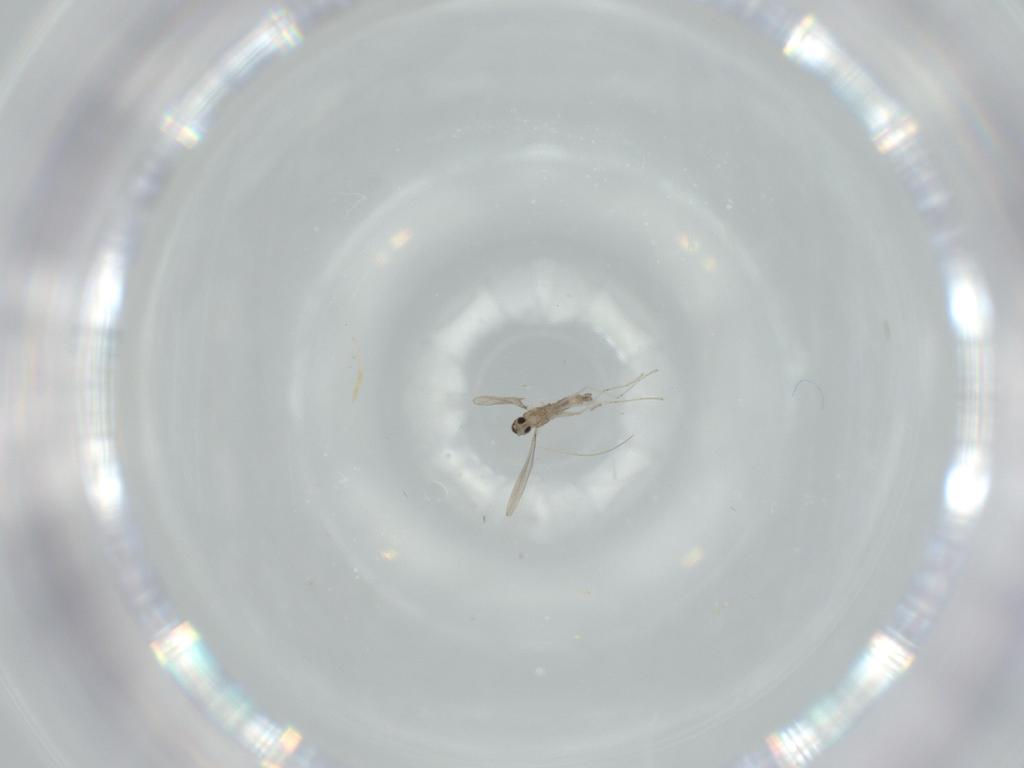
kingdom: Animalia
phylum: Arthropoda
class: Insecta
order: Diptera
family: Cecidomyiidae
